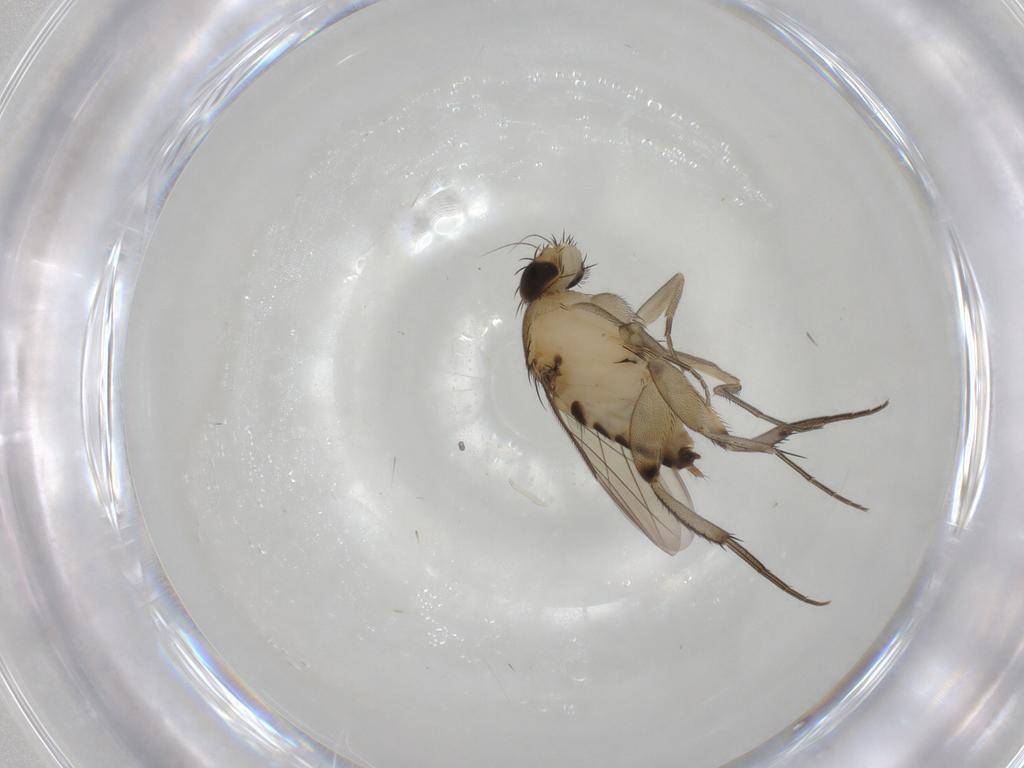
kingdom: Animalia
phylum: Arthropoda
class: Insecta
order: Diptera
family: Phoridae
